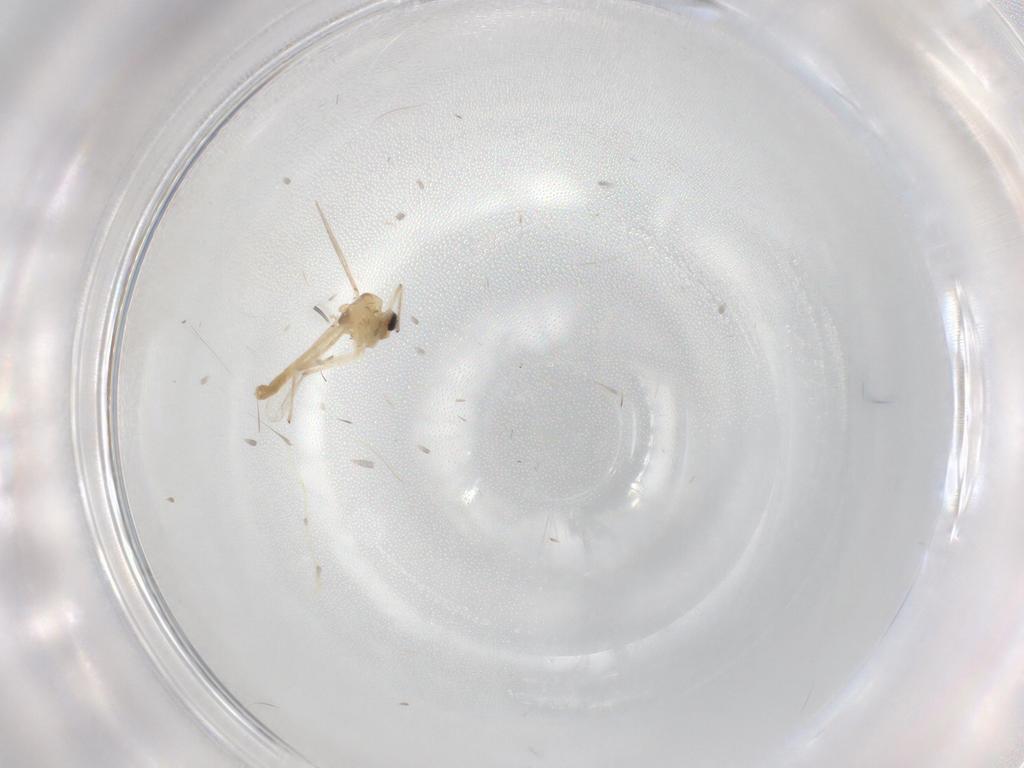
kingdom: Animalia
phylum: Arthropoda
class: Insecta
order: Diptera
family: Chironomidae
